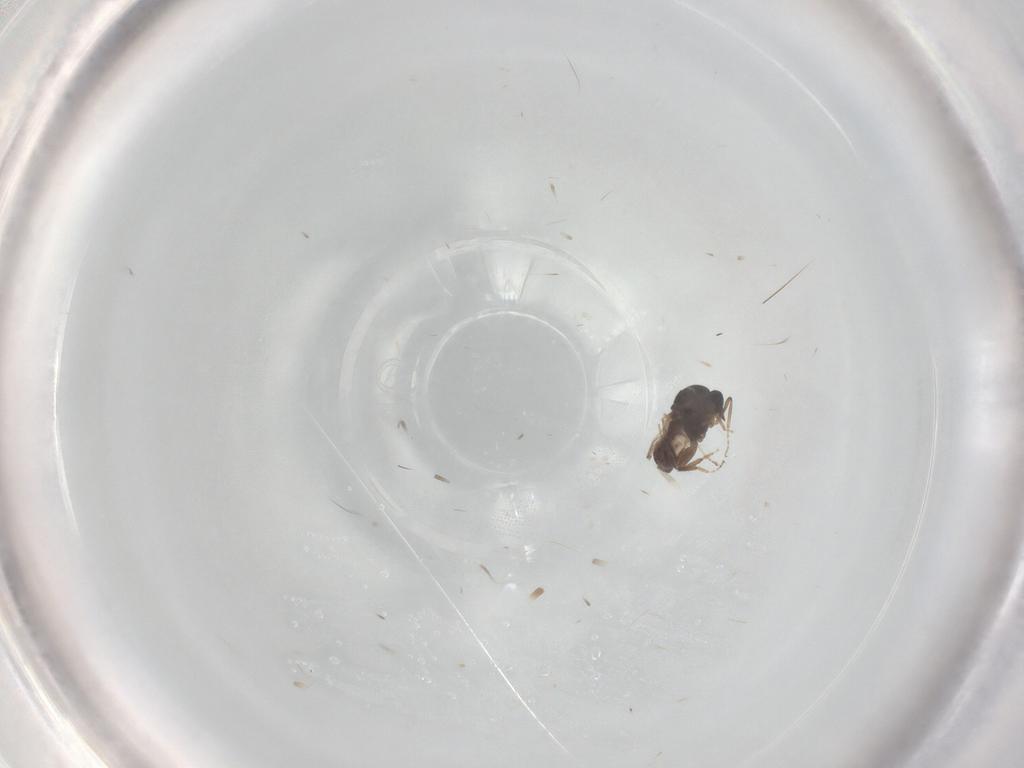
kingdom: Animalia
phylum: Arthropoda
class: Insecta
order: Diptera
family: Ceratopogonidae
